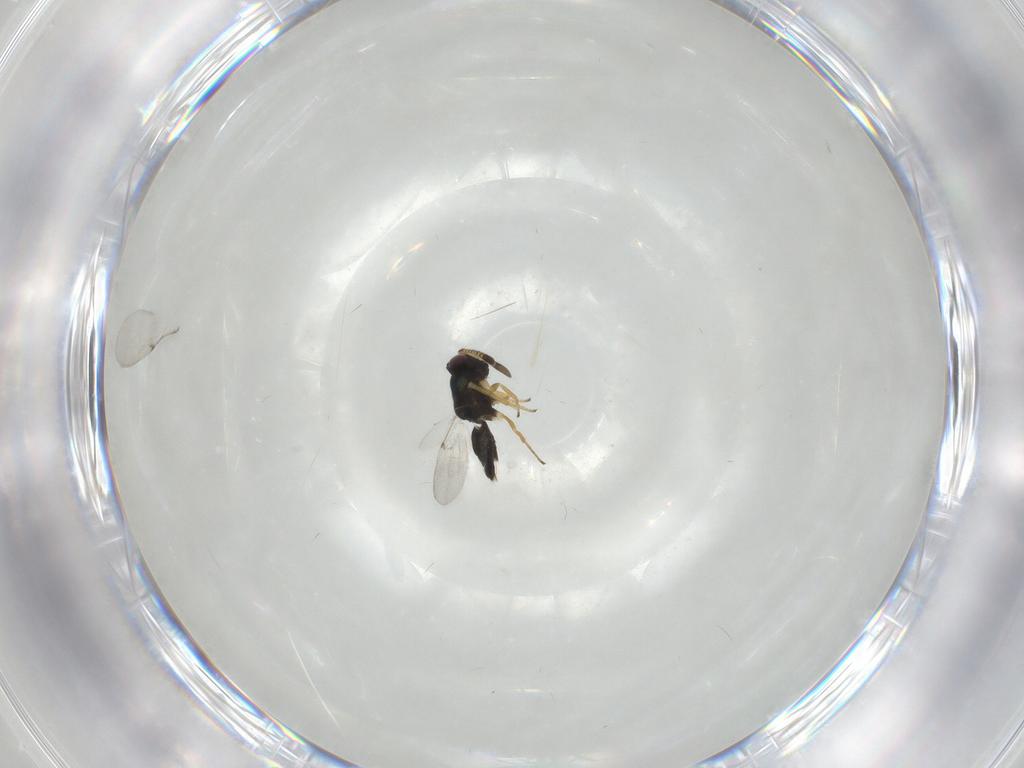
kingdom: Animalia
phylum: Arthropoda
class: Insecta
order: Hymenoptera
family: Encyrtidae
